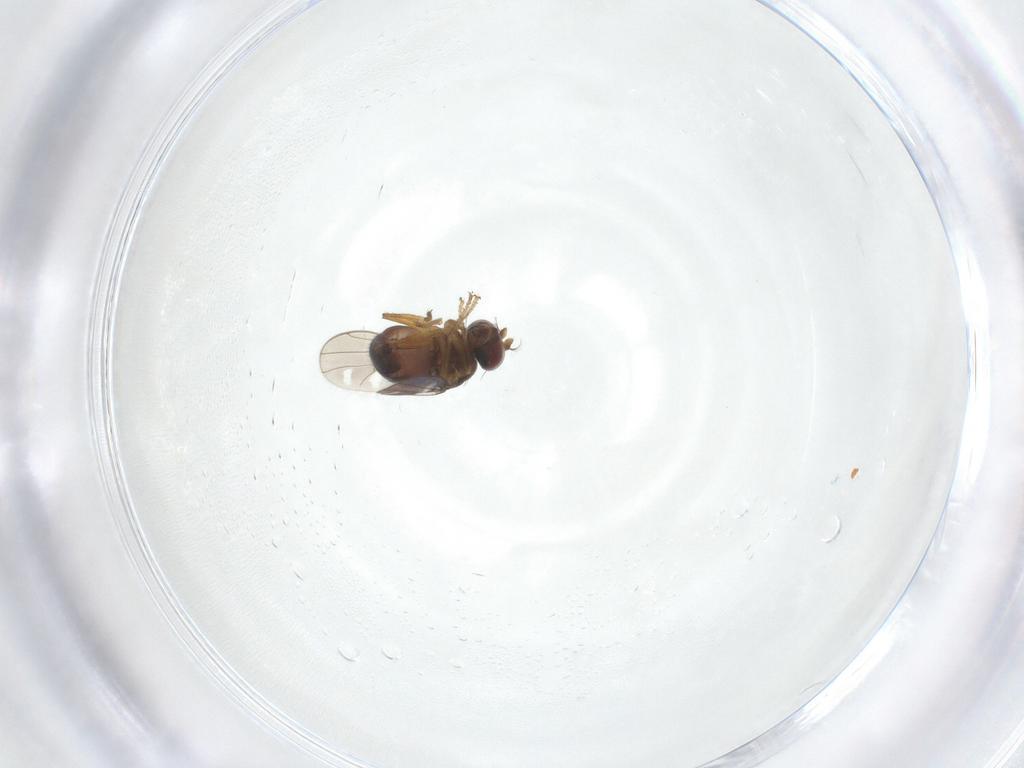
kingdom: Animalia
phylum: Arthropoda
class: Insecta
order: Diptera
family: Ephydridae
